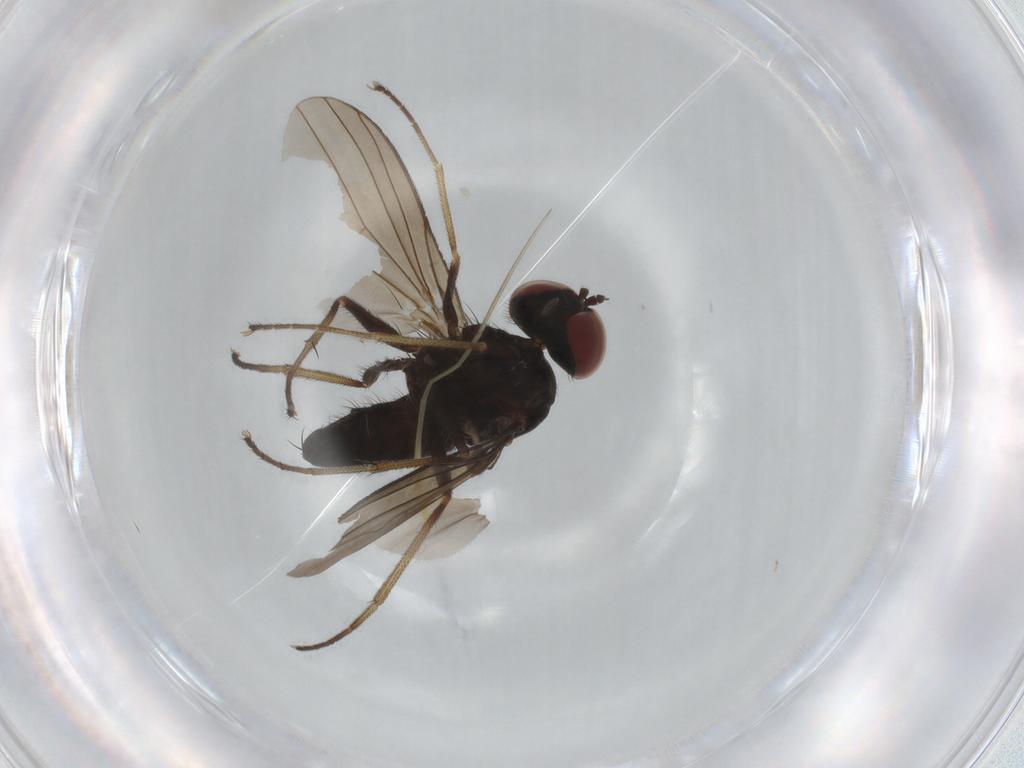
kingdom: Animalia
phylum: Arthropoda
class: Insecta
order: Diptera
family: Dolichopodidae
